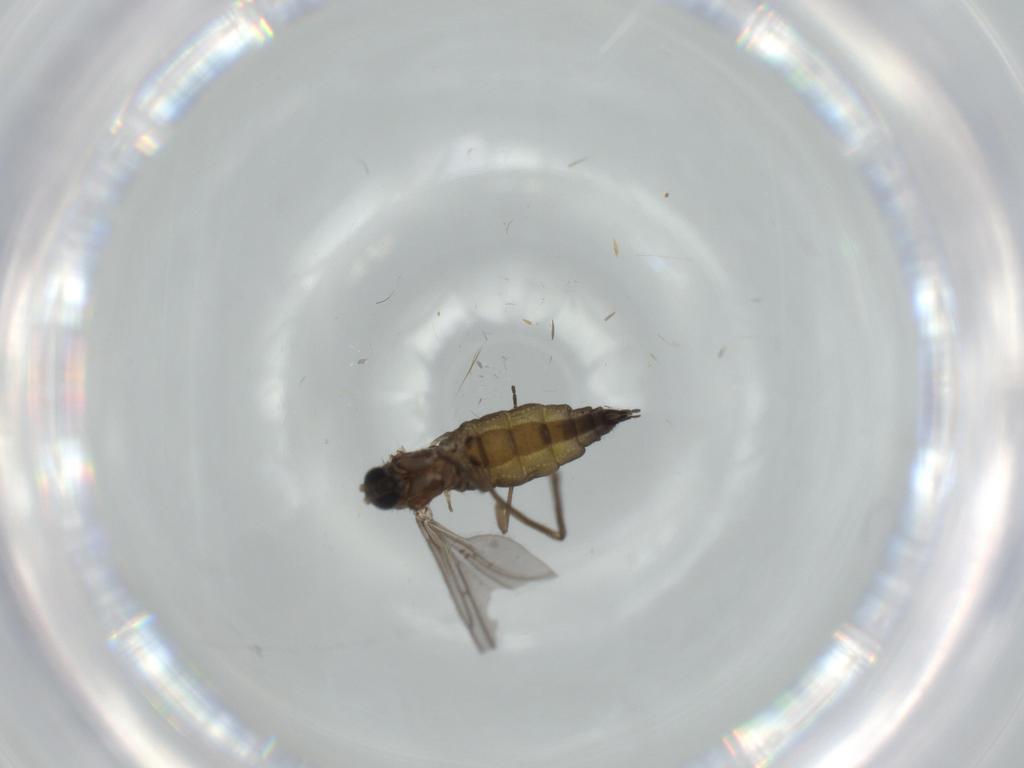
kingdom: Animalia
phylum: Arthropoda
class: Insecta
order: Diptera
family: Sciaridae
